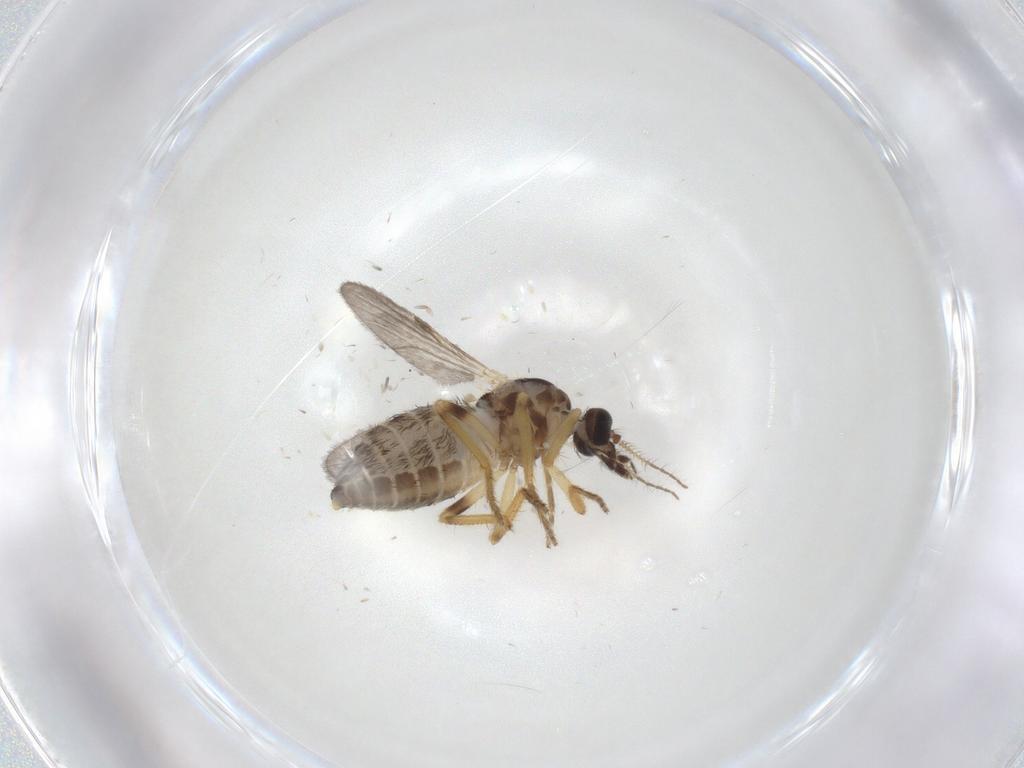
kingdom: Animalia
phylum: Arthropoda
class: Insecta
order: Diptera
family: Ceratopogonidae
